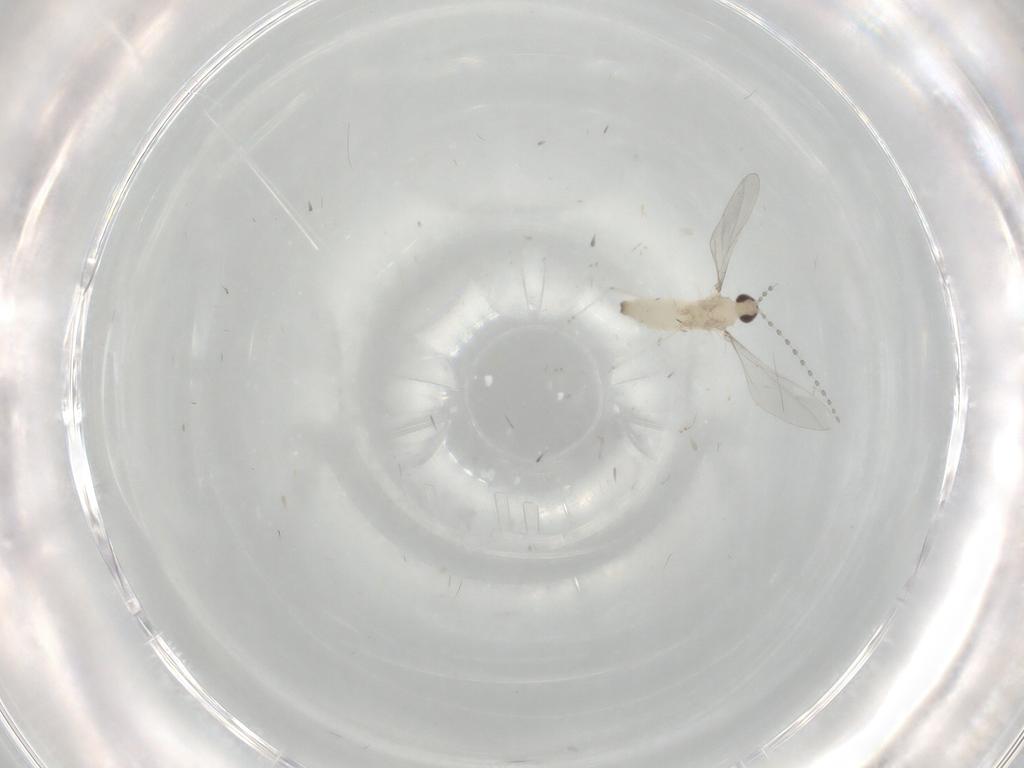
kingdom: Animalia
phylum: Arthropoda
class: Insecta
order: Diptera
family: Cecidomyiidae
